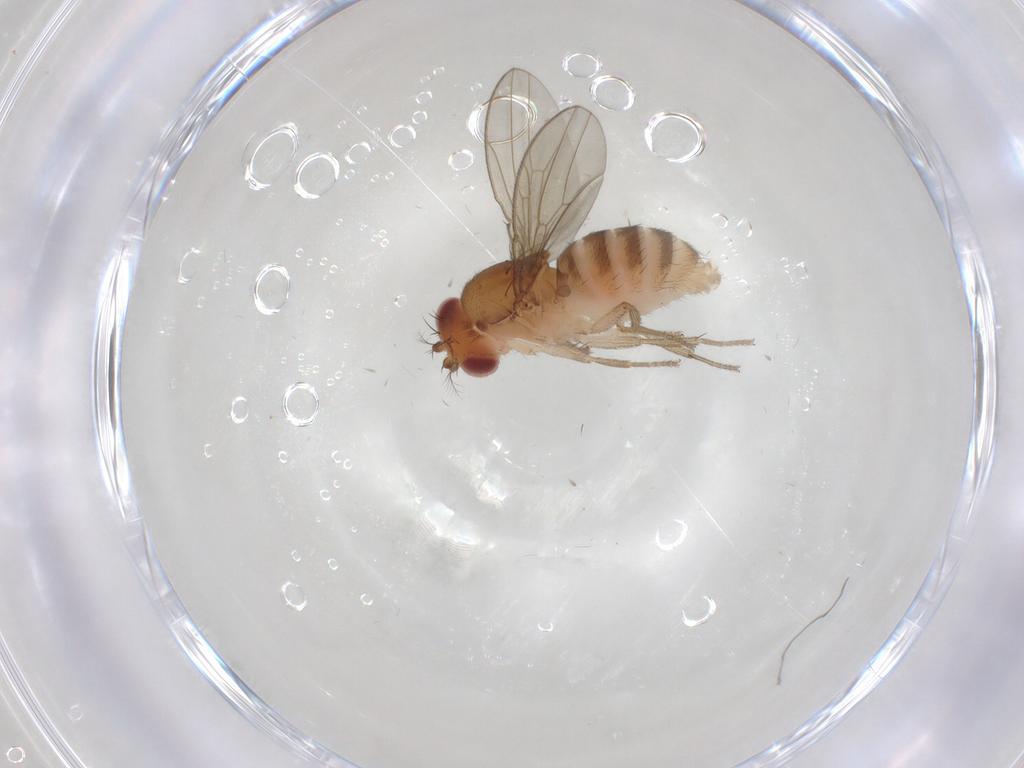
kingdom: Animalia
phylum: Arthropoda
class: Insecta
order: Diptera
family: Drosophilidae
